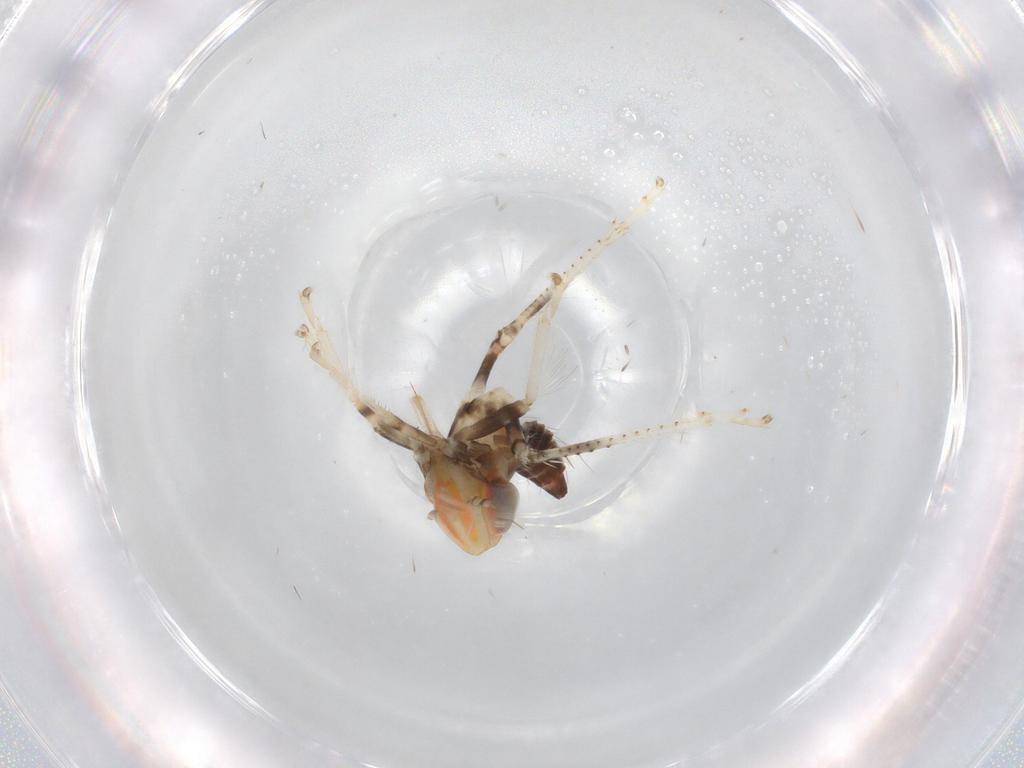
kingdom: Animalia
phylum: Arthropoda
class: Insecta
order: Hemiptera
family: Cicadellidae
